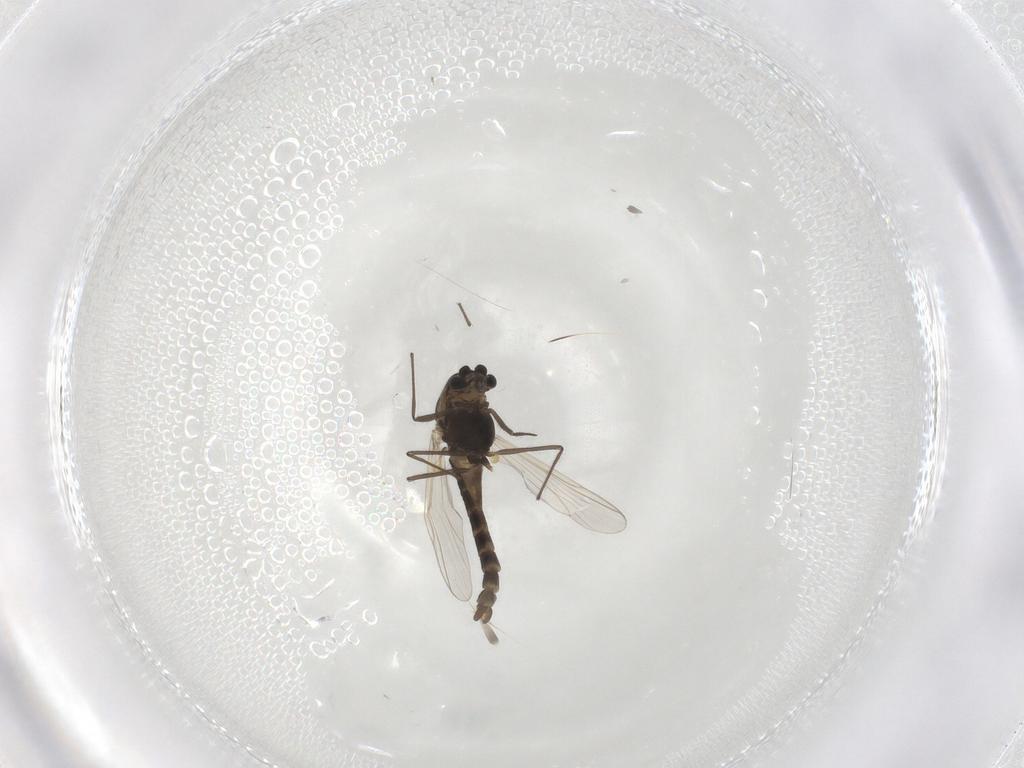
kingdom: Animalia
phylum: Arthropoda
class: Insecta
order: Diptera
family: Chironomidae
